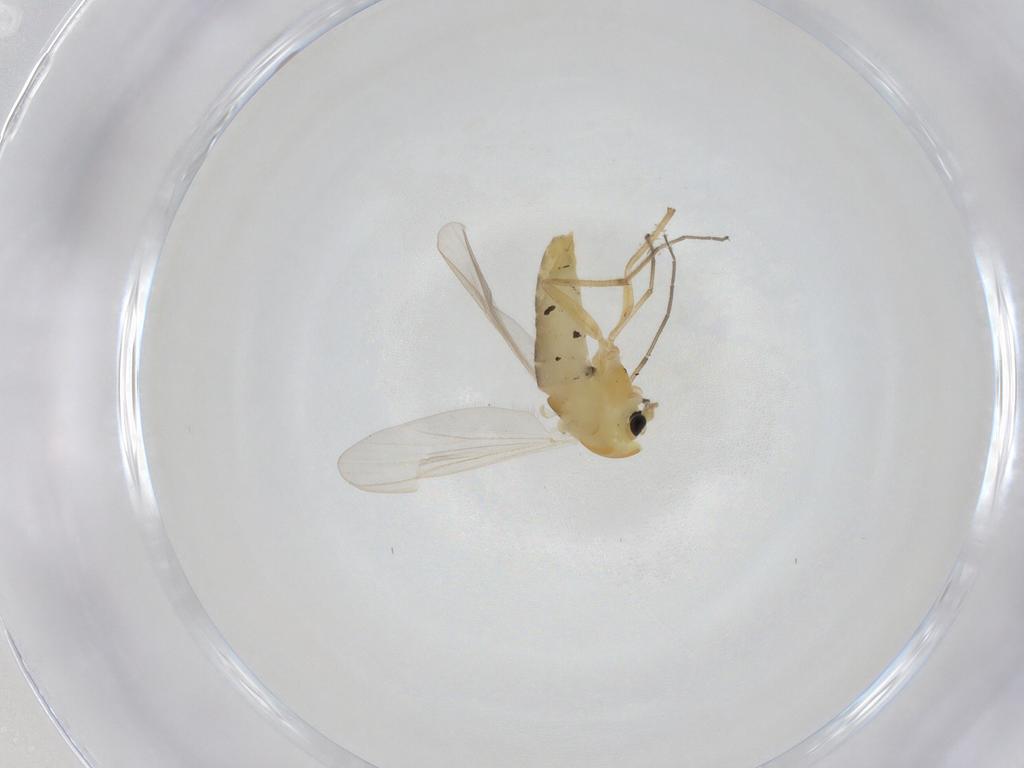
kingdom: Animalia
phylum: Arthropoda
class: Insecta
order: Diptera
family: Chironomidae
